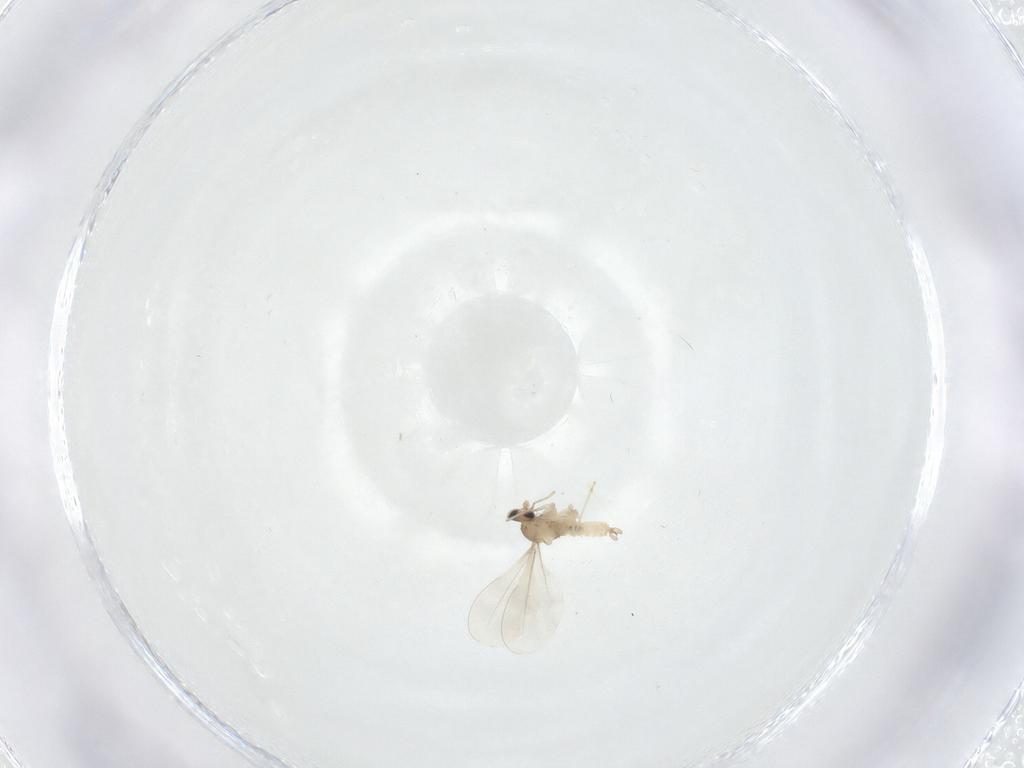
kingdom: Animalia
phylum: Arthropoda
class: Insecta
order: Diptera
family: Cecidomyiidae
